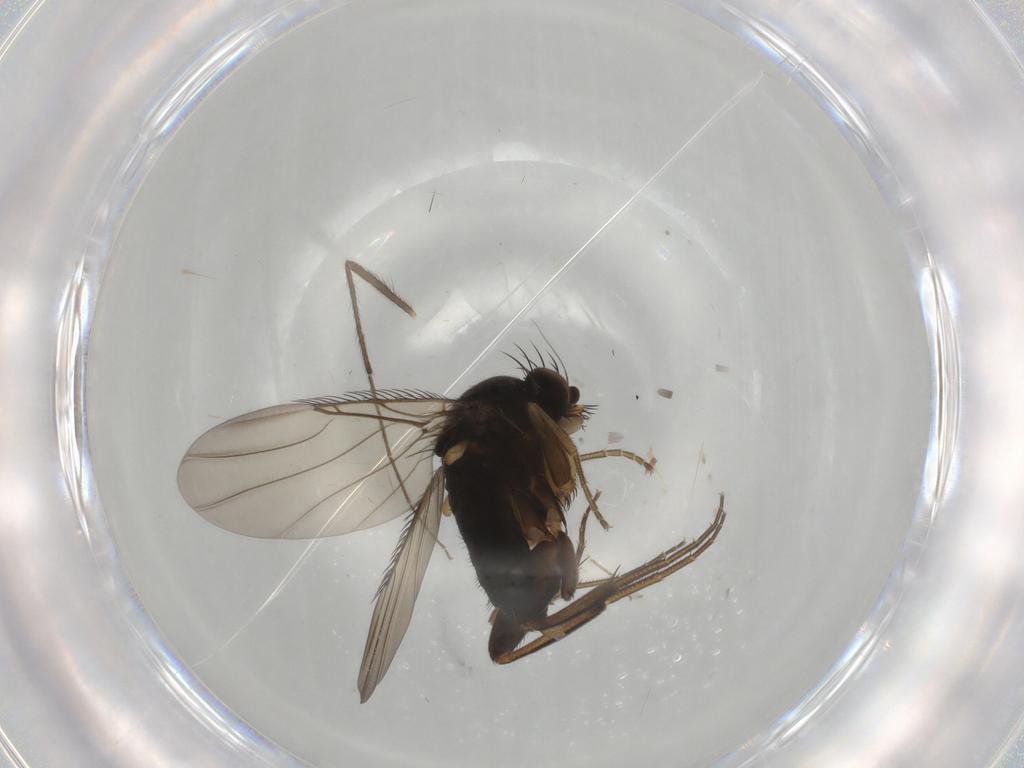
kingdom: Animalia
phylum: Arthropoda
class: Insecta
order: Diptera
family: Phoridae
